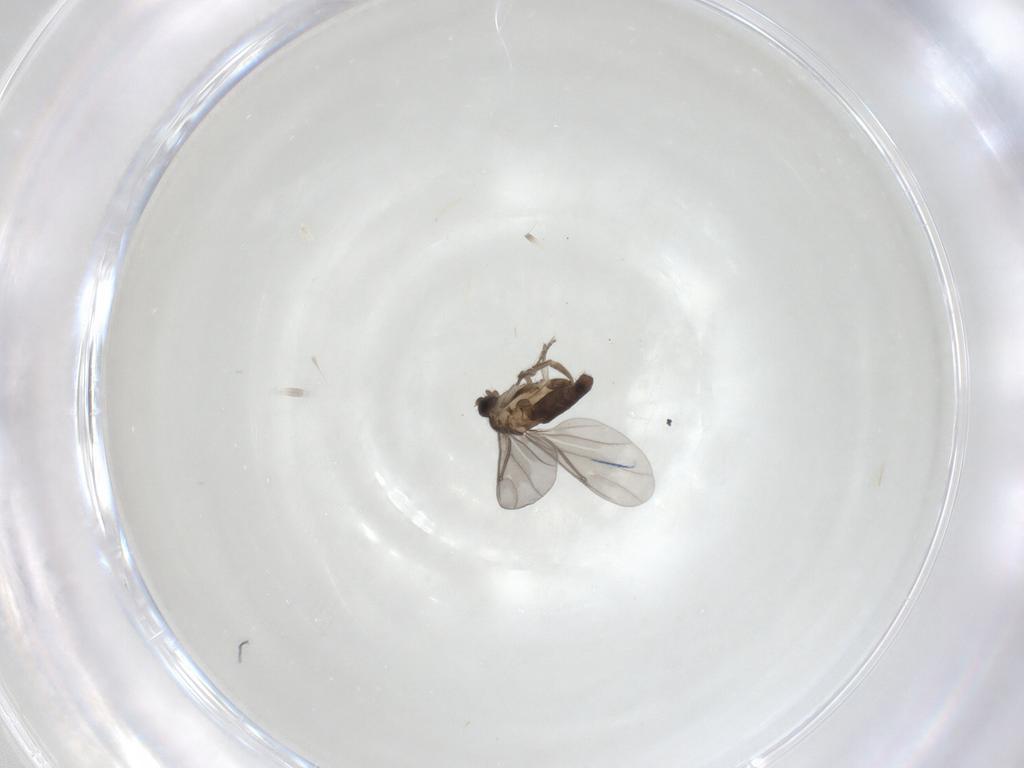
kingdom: Animalia
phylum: Arthropoda
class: Insecta
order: Diptera
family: Phoridae
